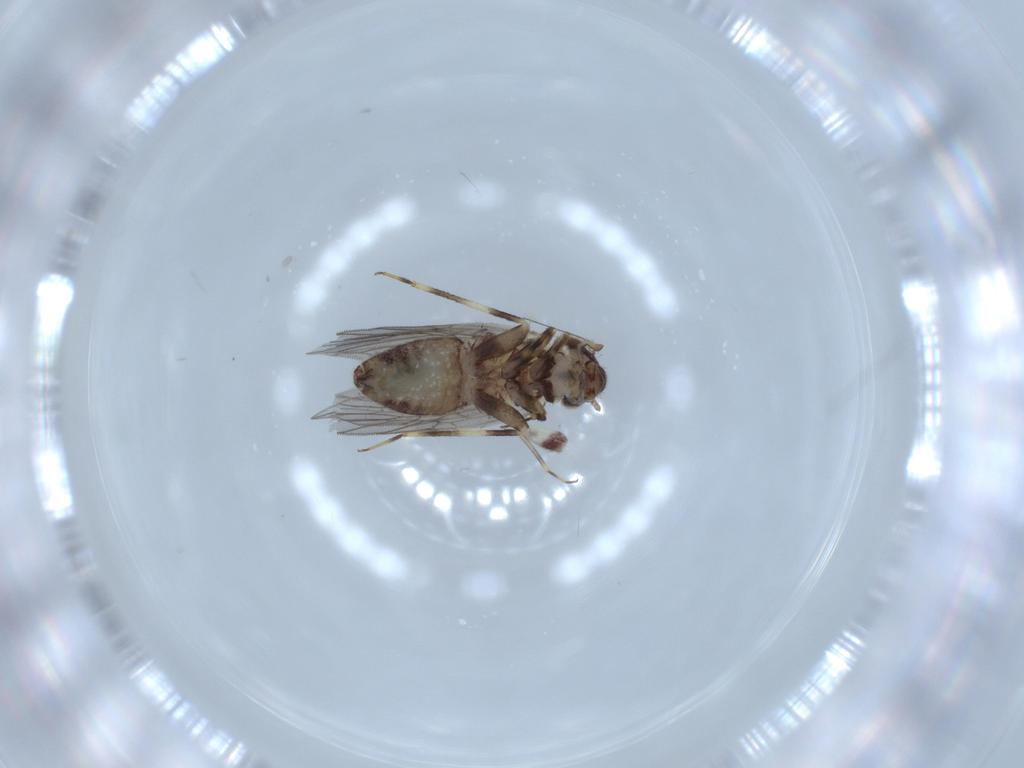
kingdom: Animalia
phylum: Arthropoda
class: Insecta
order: Psocodea
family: Lepidopsocidae
